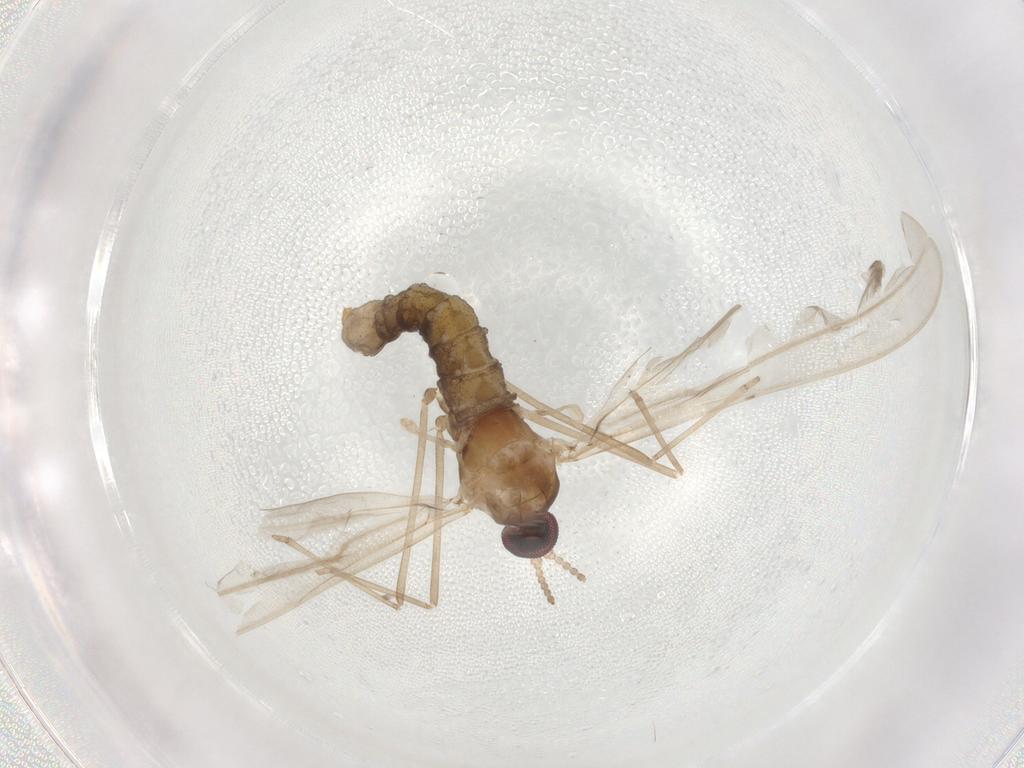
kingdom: Animalia
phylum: Arthropoda
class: Insecta
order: Diptera
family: Cecidomyiidae
